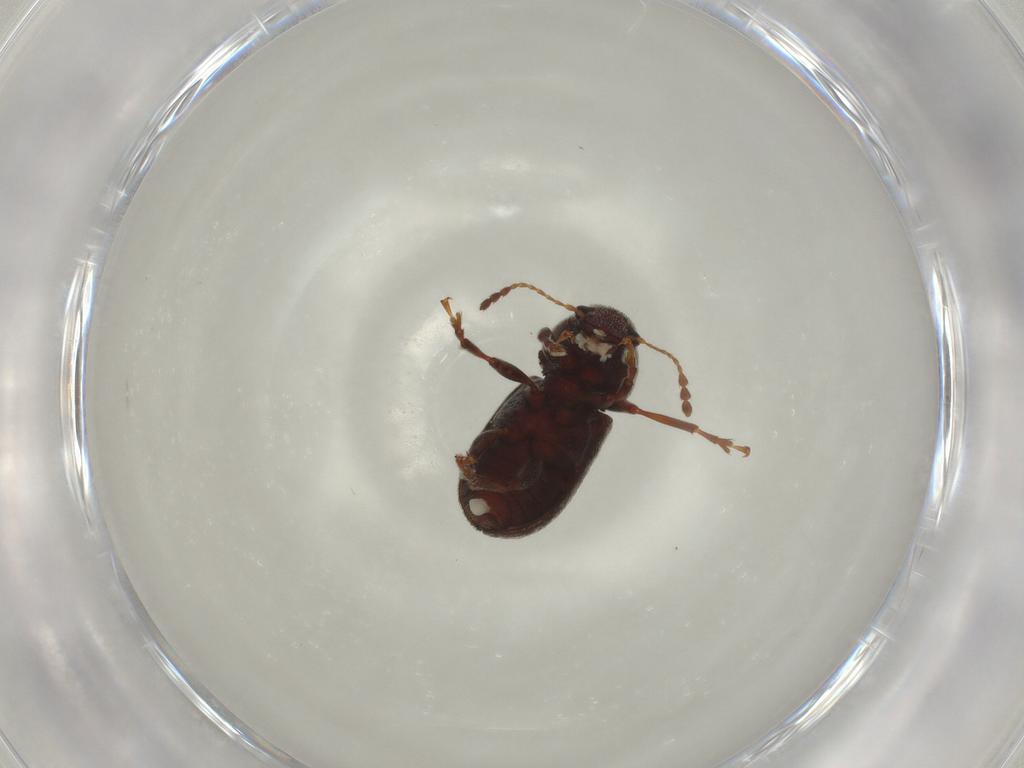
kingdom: Animalia
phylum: Arthropoda
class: Insecta
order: Coleoptera
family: Anthribidae
